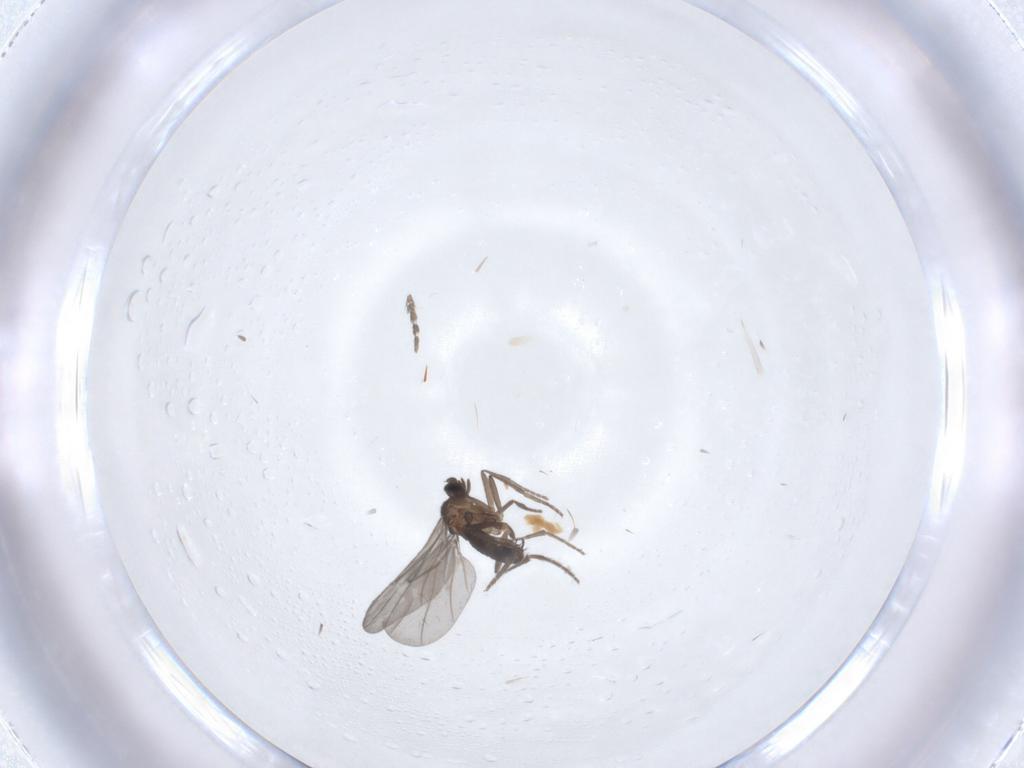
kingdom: Animalia
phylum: Arthropoda
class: Insecta
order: Diptera
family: Phoridae
